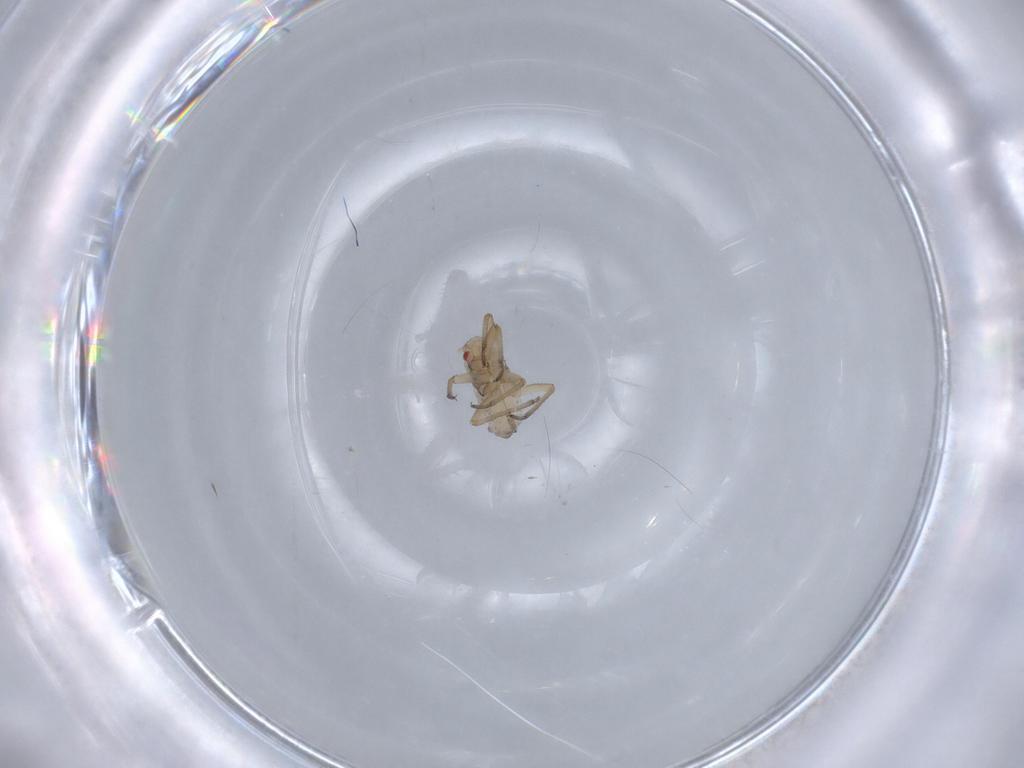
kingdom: Animalia
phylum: Arthropoda
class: Insecta
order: Hemiptera
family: Aphididae
